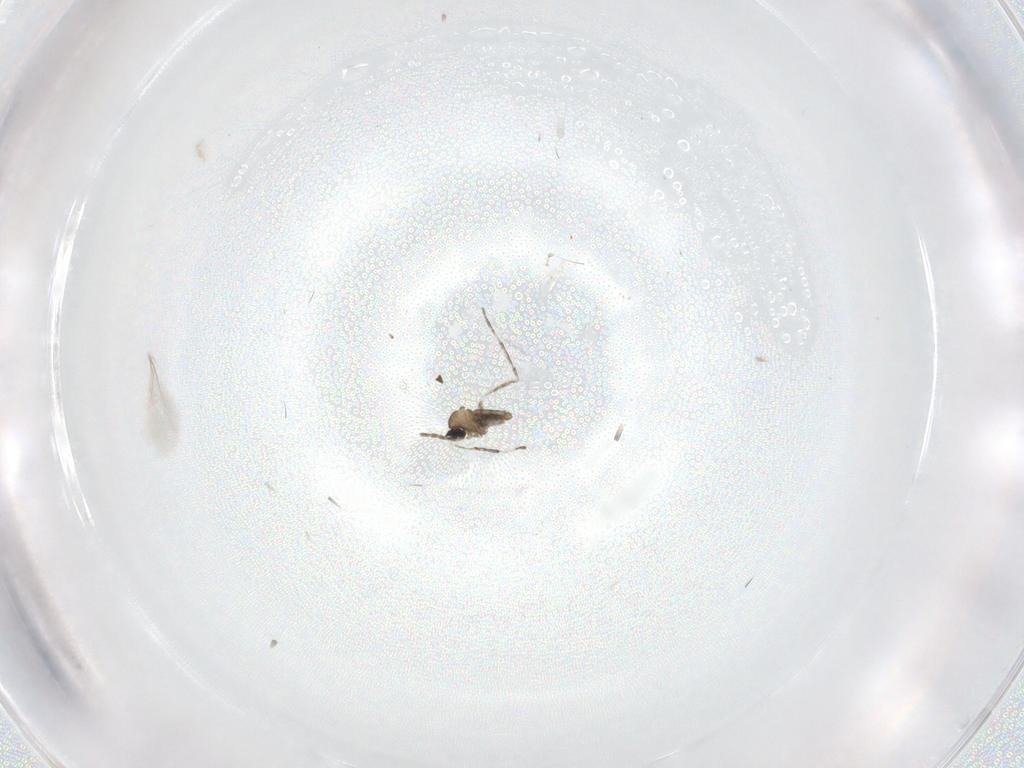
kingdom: Animalia
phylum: Arthropoda
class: Insecta
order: Diptera
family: Cecidomyiidae
